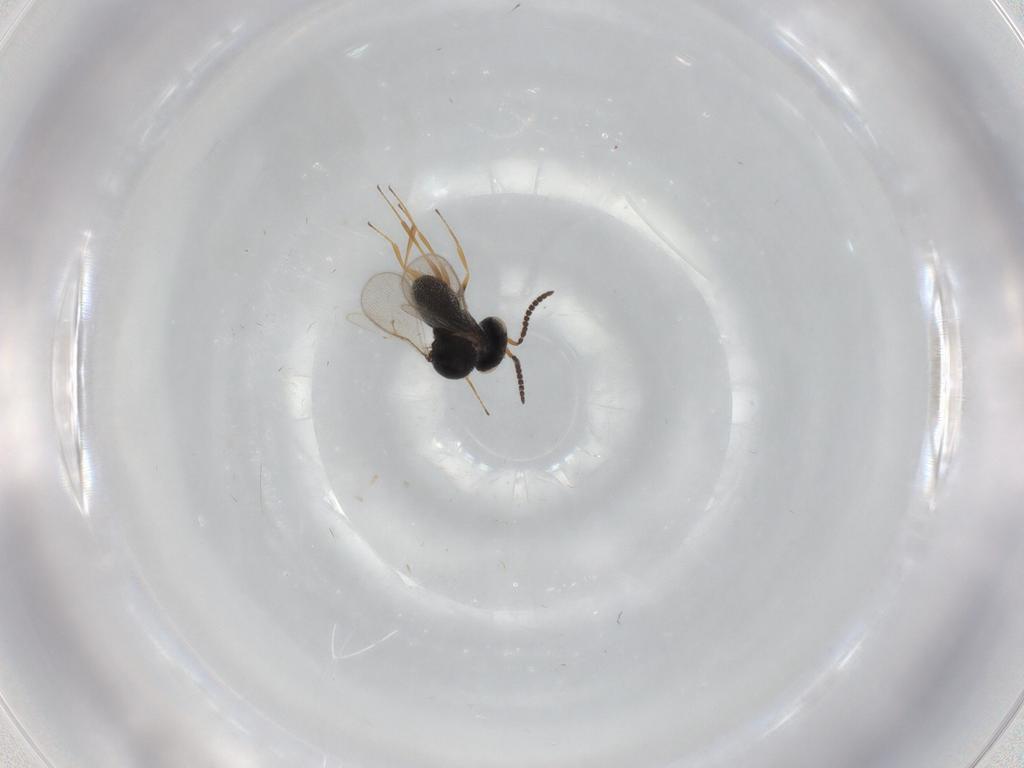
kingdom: Animalia
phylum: Arthropoda
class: Insecta
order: Hymenoptera
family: Scelionidae
